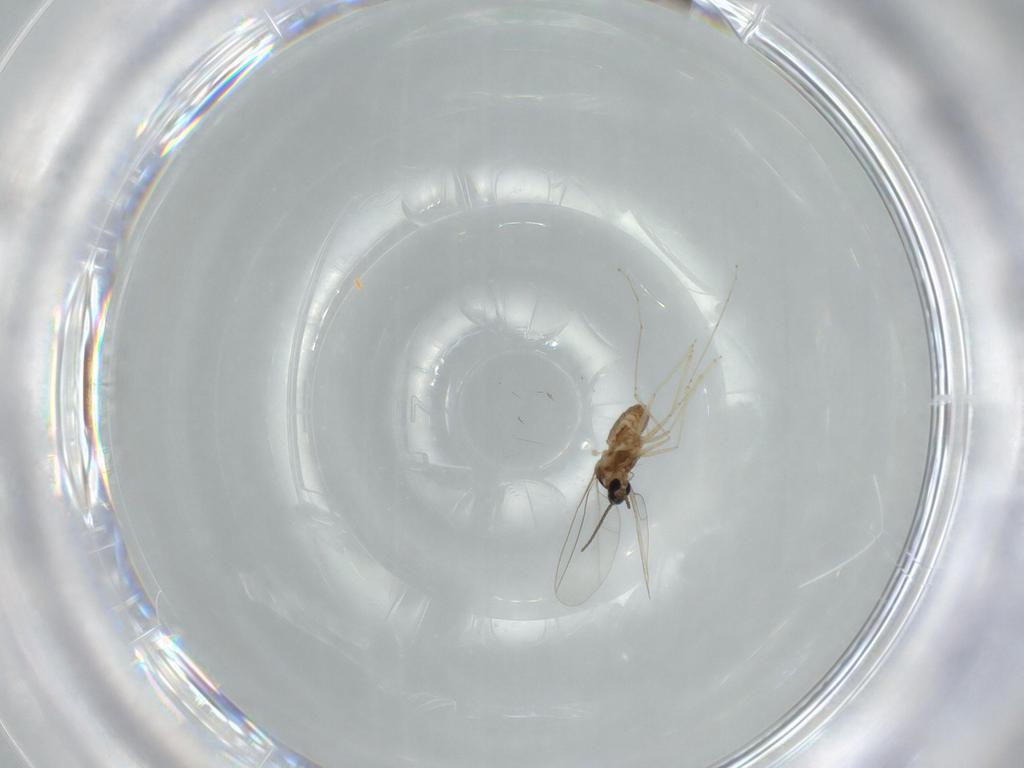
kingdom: Animalia
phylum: Arthropoda
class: Insecta
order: Diptera
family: Cecidomyiidae
